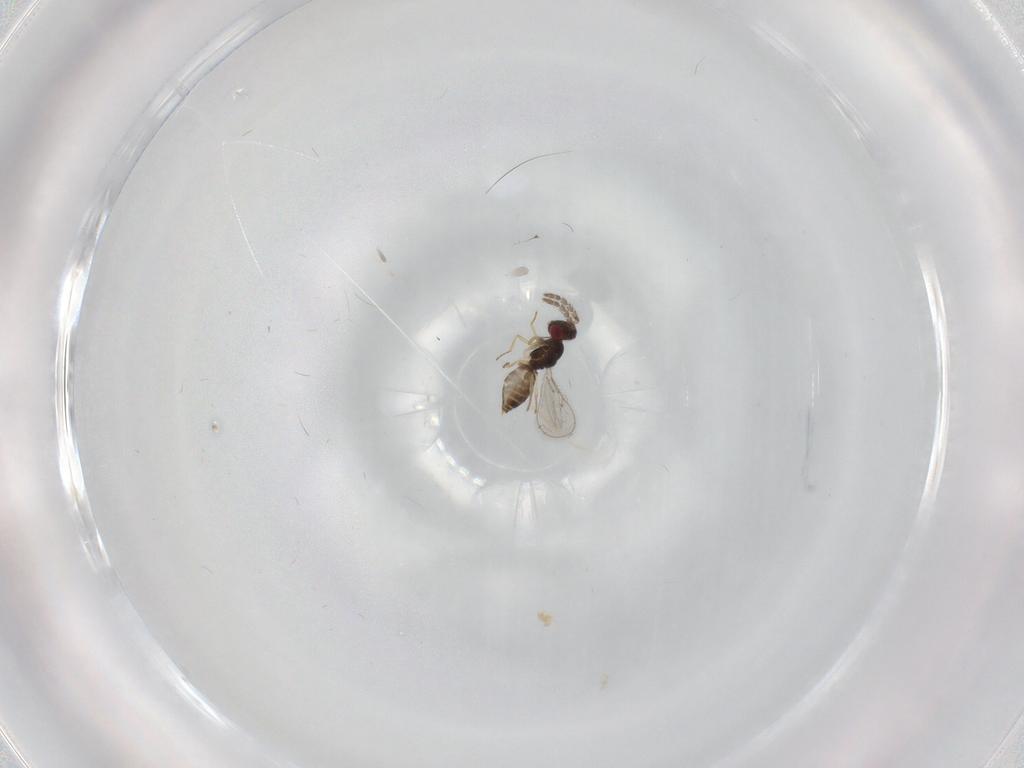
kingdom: Animalia
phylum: Arthropoda
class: Insecta
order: Hymenoptera
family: Eulophidae
